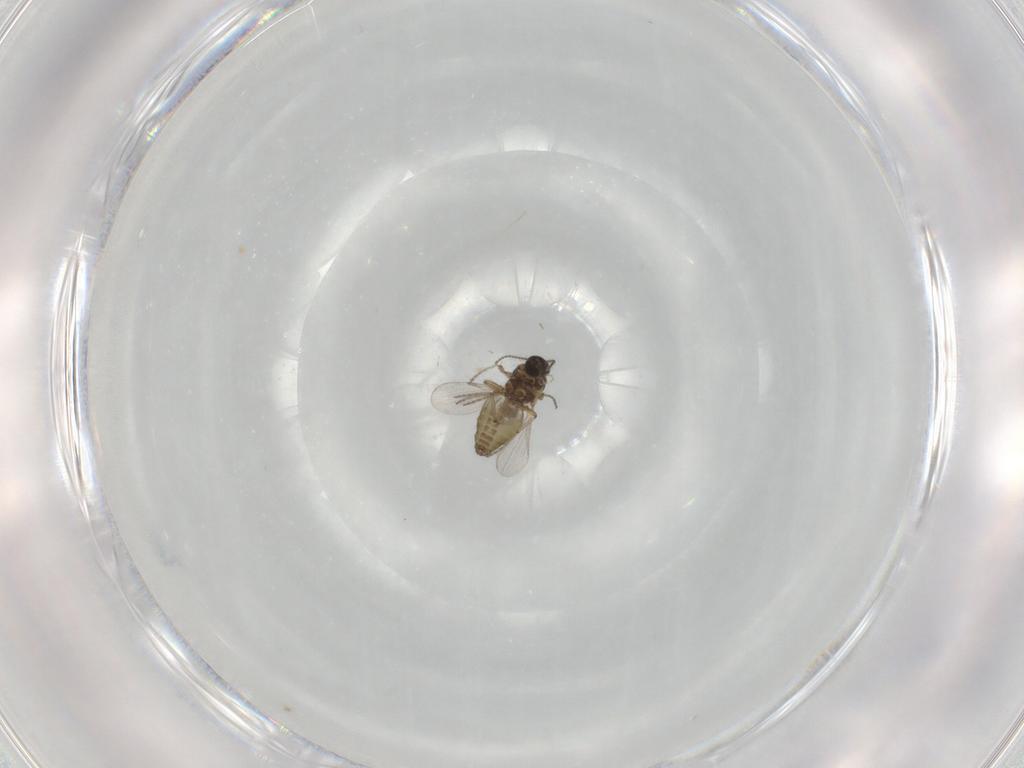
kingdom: Animalia
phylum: Arthropoda
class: Insecta
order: Diptera
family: Ceratopogonidae
